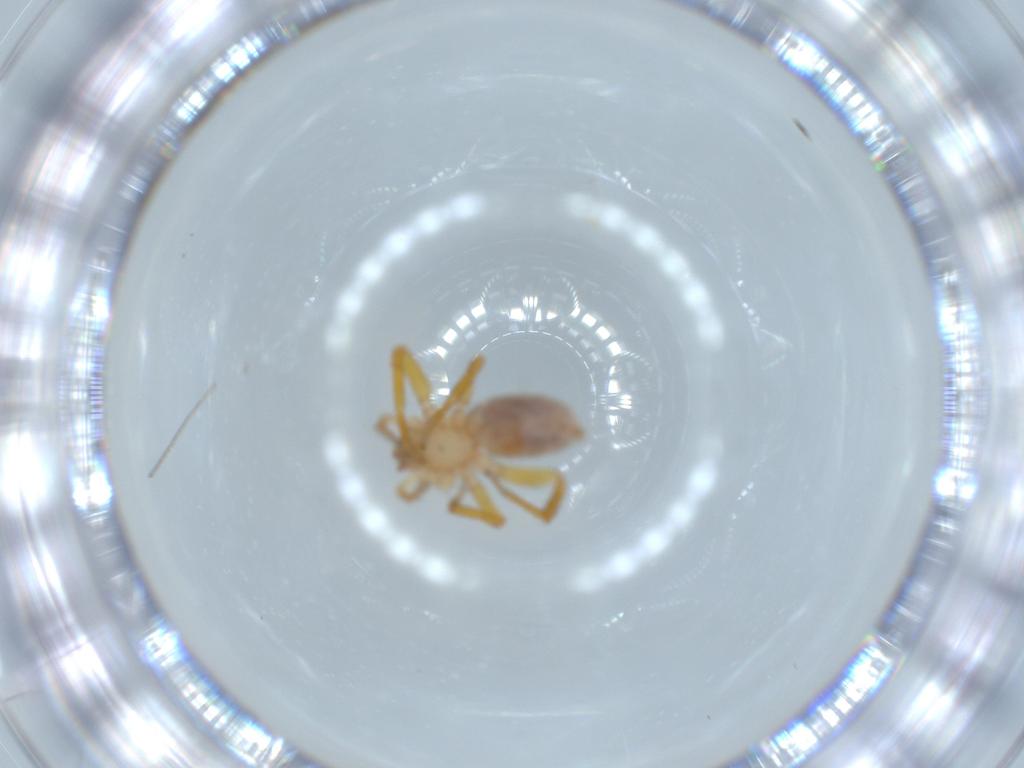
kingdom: Animalia
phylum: Arthropoda
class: Arachnida
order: Araneae
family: Oonopidae
